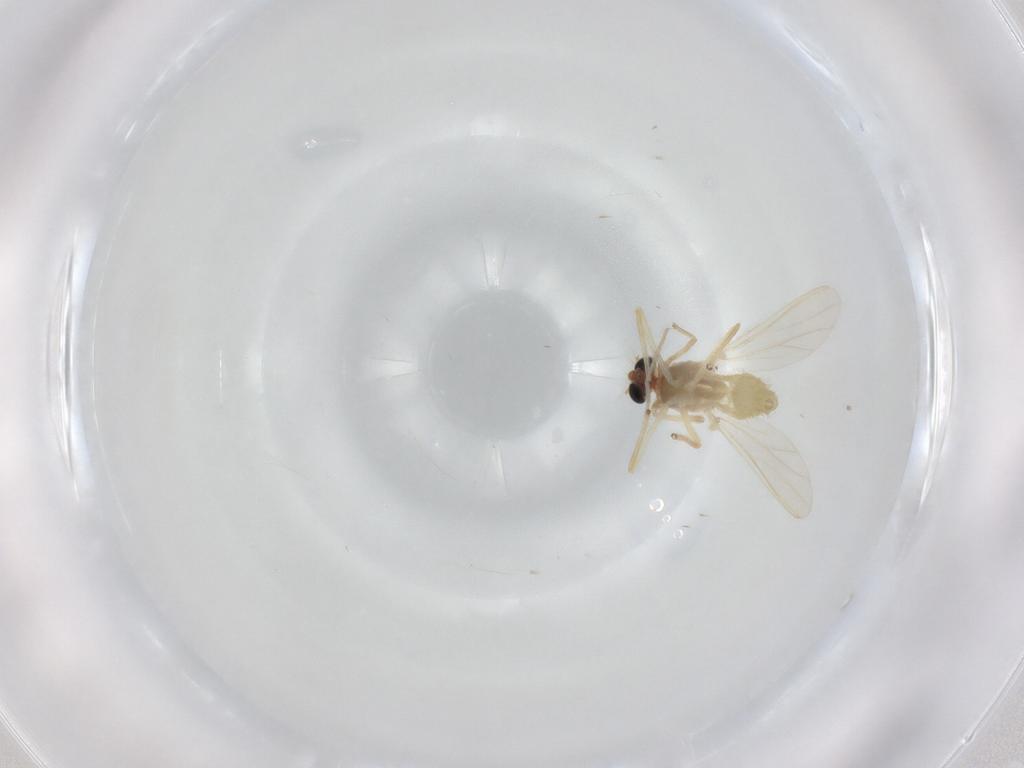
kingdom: Animalia
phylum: Arthropoda
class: Insecta
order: Diptera
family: Chironomidae
